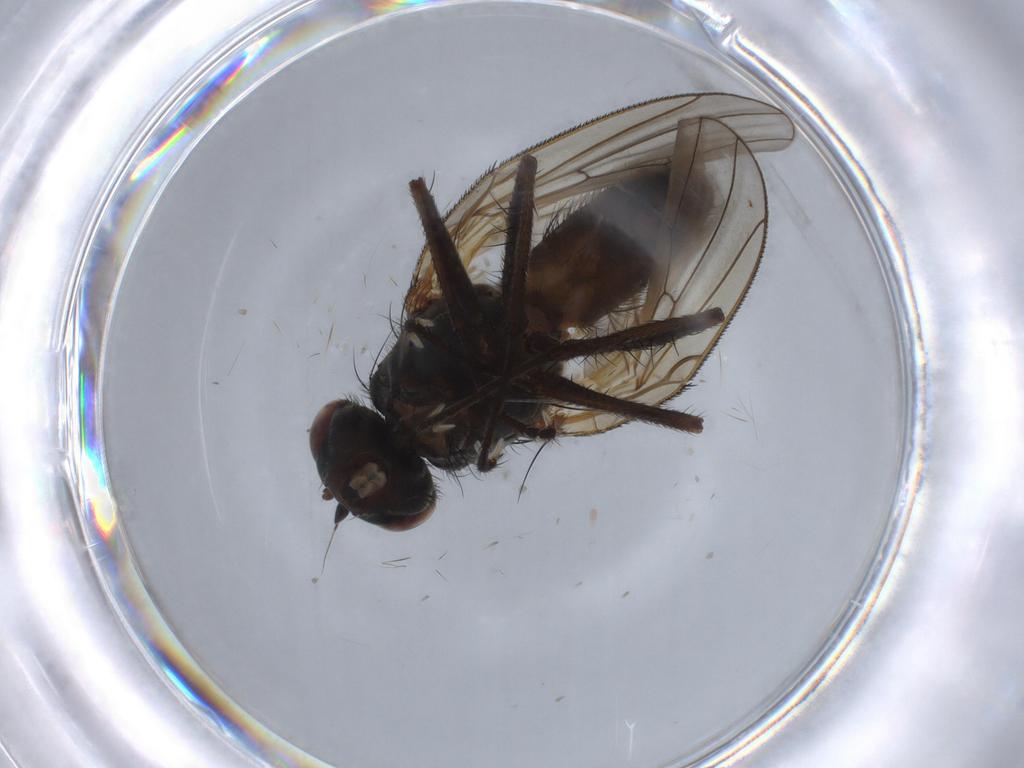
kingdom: Animalia
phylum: Arthropoda
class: Insecta
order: Diptera
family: Anthomyiidae
